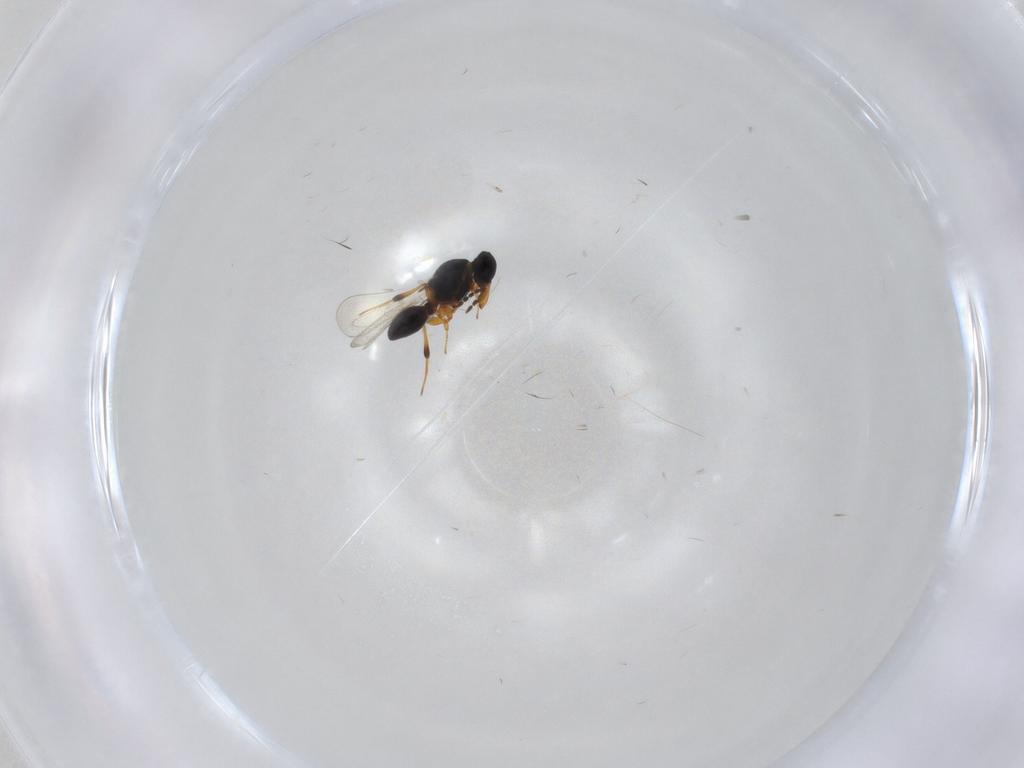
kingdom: Animalia
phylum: Arthropoda
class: Insecta
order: Hymenoptera
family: Platygastridae
